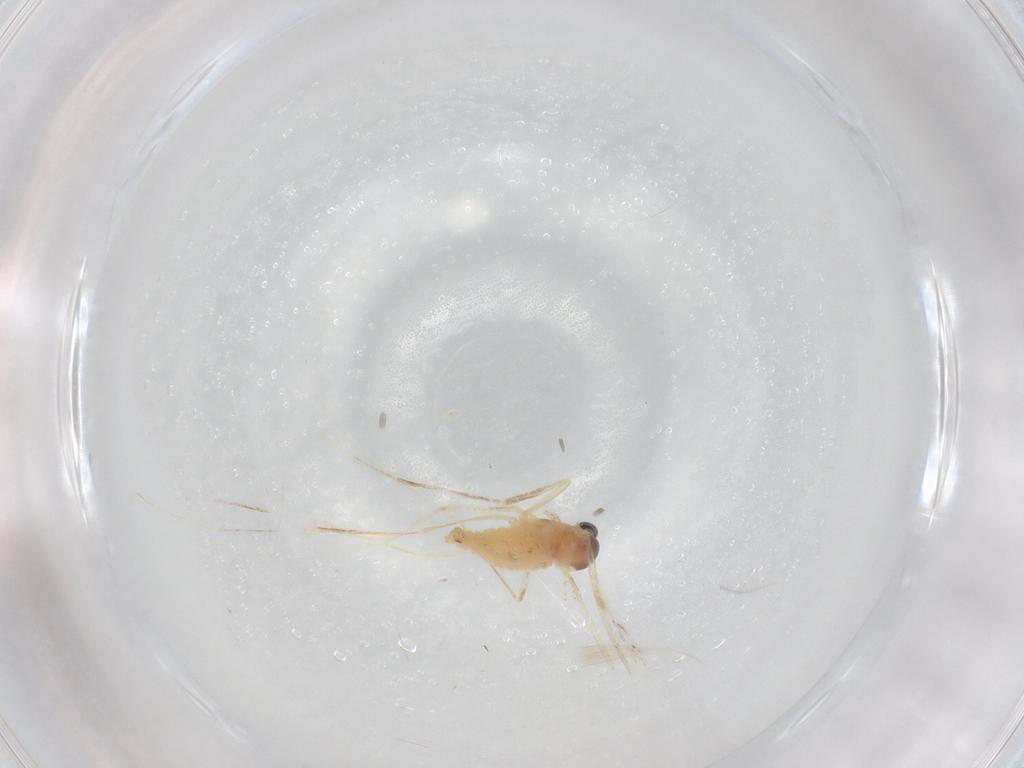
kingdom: Animalia
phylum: Arthropoda
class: Insecta
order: Diptera
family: Cecidomyiidae
